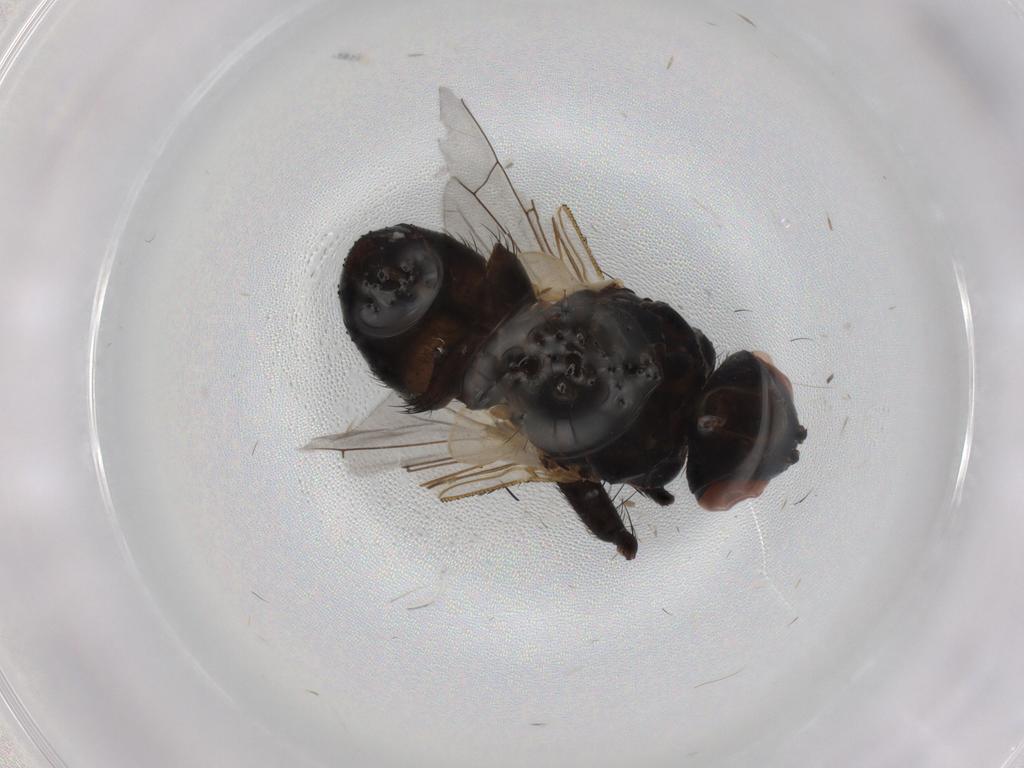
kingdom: Animalia
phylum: Arthropoda
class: Insecta
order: Diptera
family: Tachinidae
